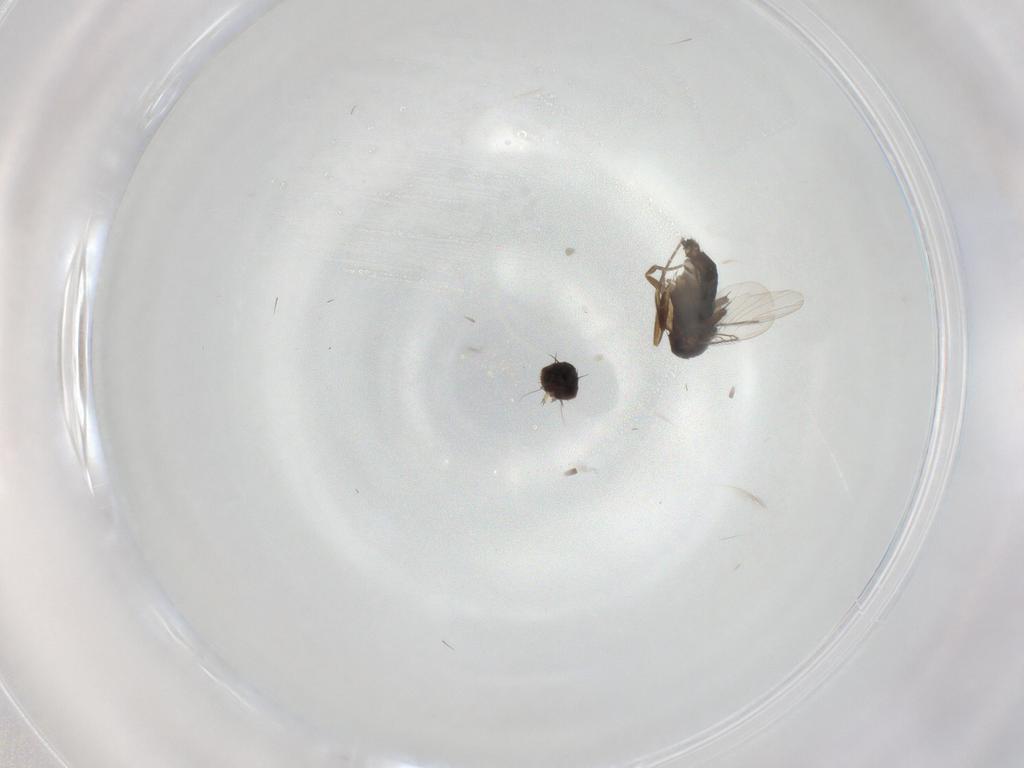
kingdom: Animalia
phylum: Arthropoda
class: Insecta
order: Diptera
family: Phoridae
